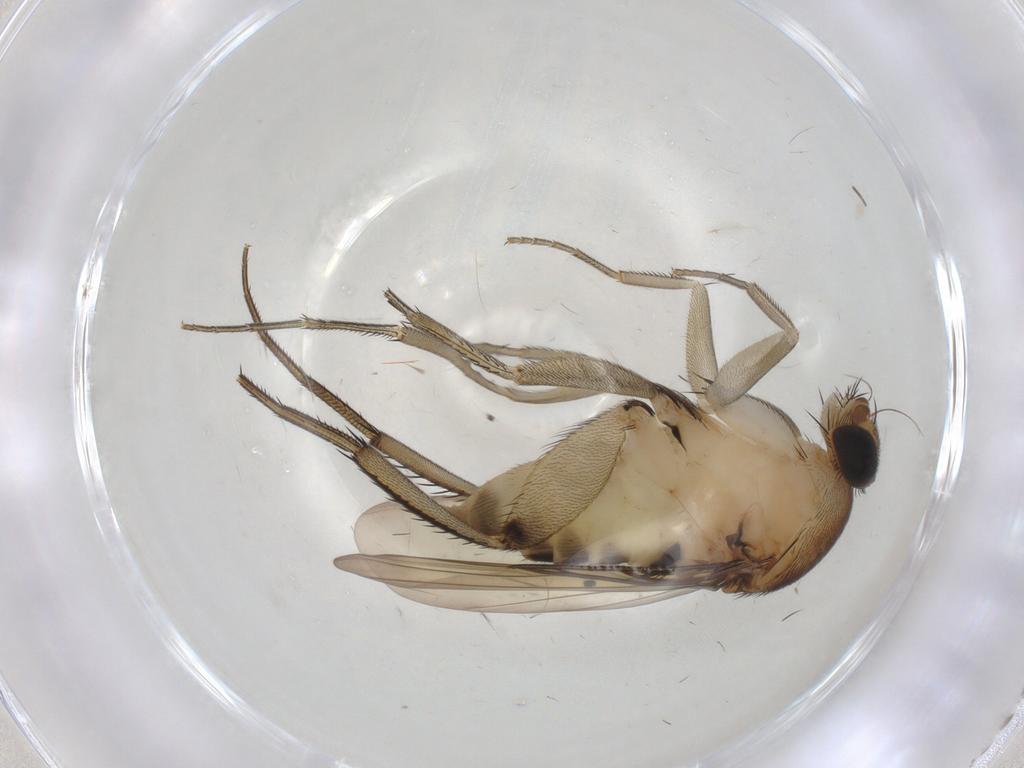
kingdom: Animalia
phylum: Arthropoda
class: Insecta
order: Diptera
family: Phoridae
